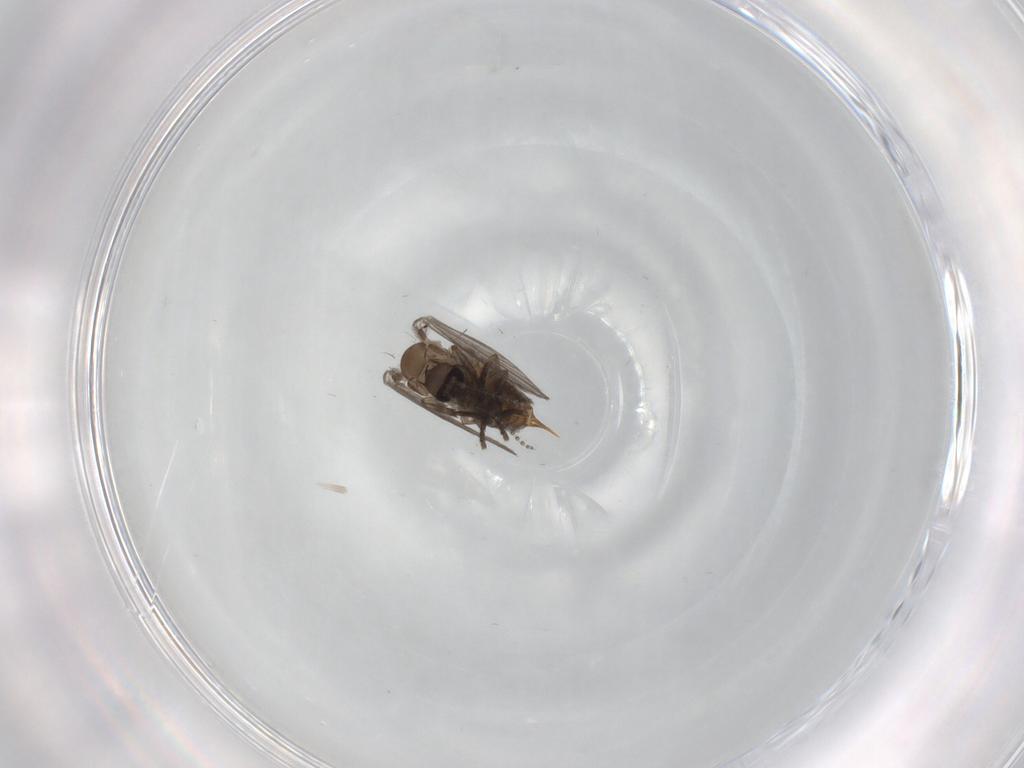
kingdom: Animalia
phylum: Arthropoda
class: Insecta
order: Diptera
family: Psychodidae
